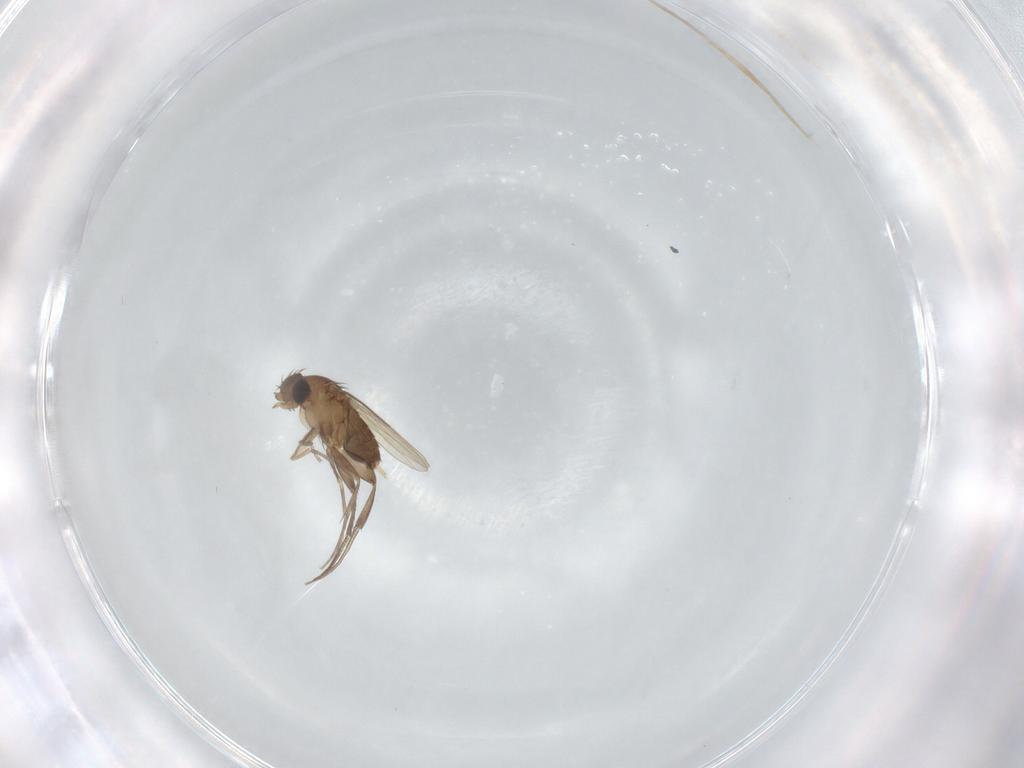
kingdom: Animalia
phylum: Arthropoda
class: Insecta
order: Diptera
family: Phoridae
